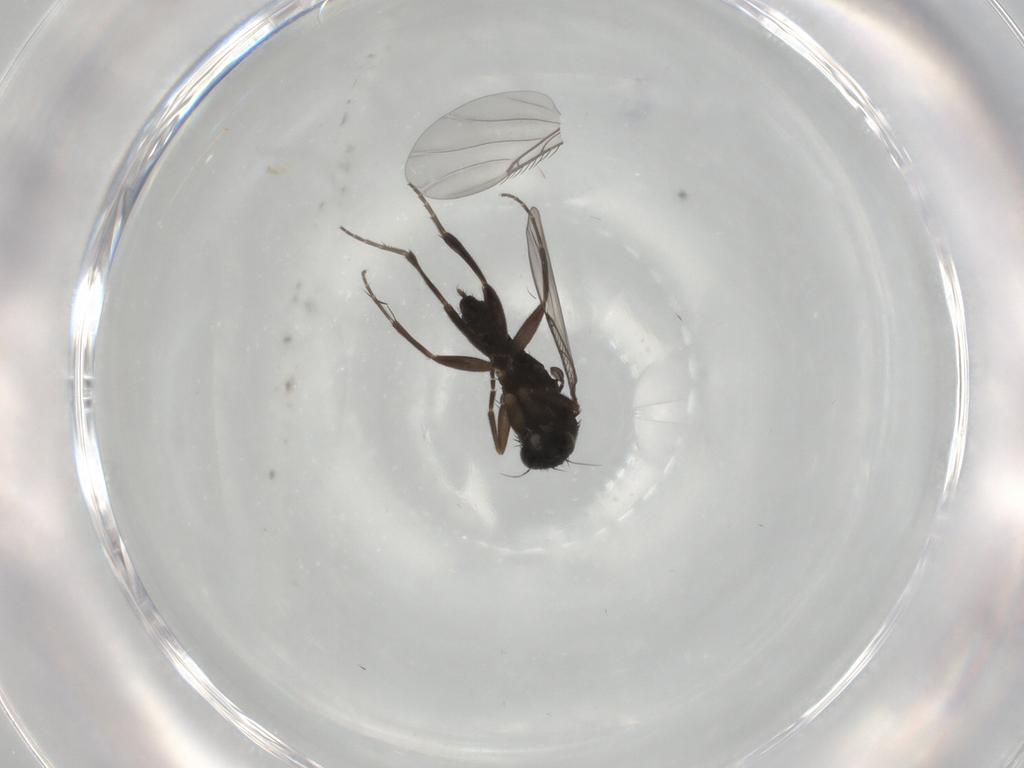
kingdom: Animalia
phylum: Arthropoda
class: Insecta
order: Diptera
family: Phoridae
